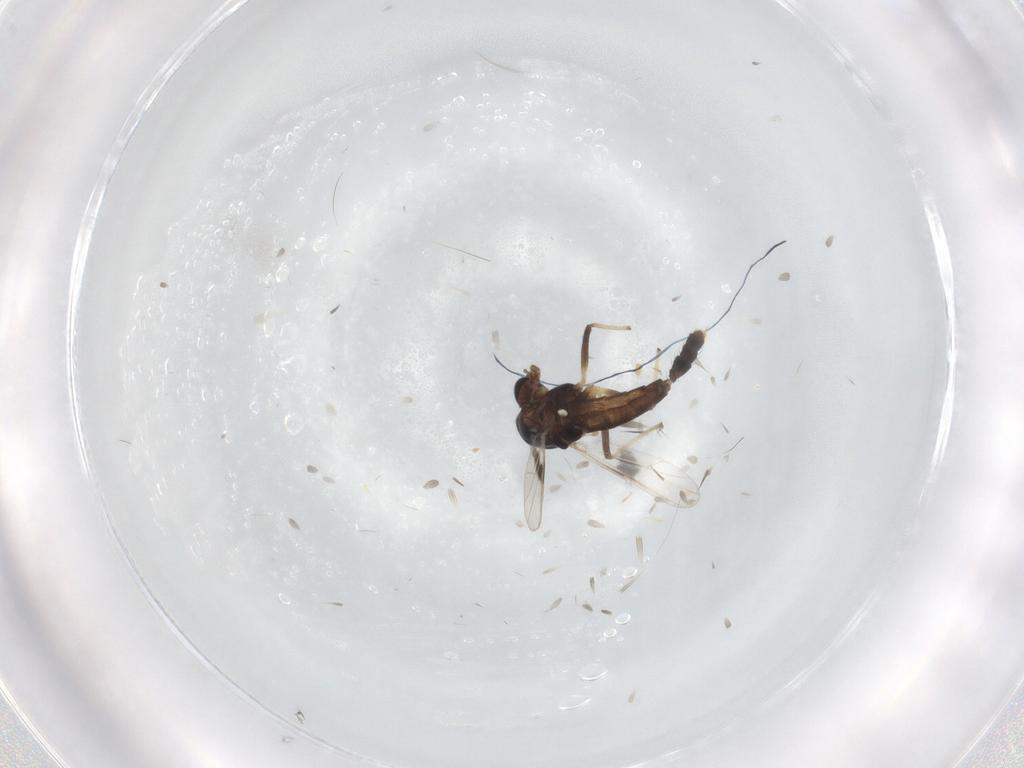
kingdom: Animalia
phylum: Arthropoda
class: Insecta
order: Diptera
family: Chironomidae
